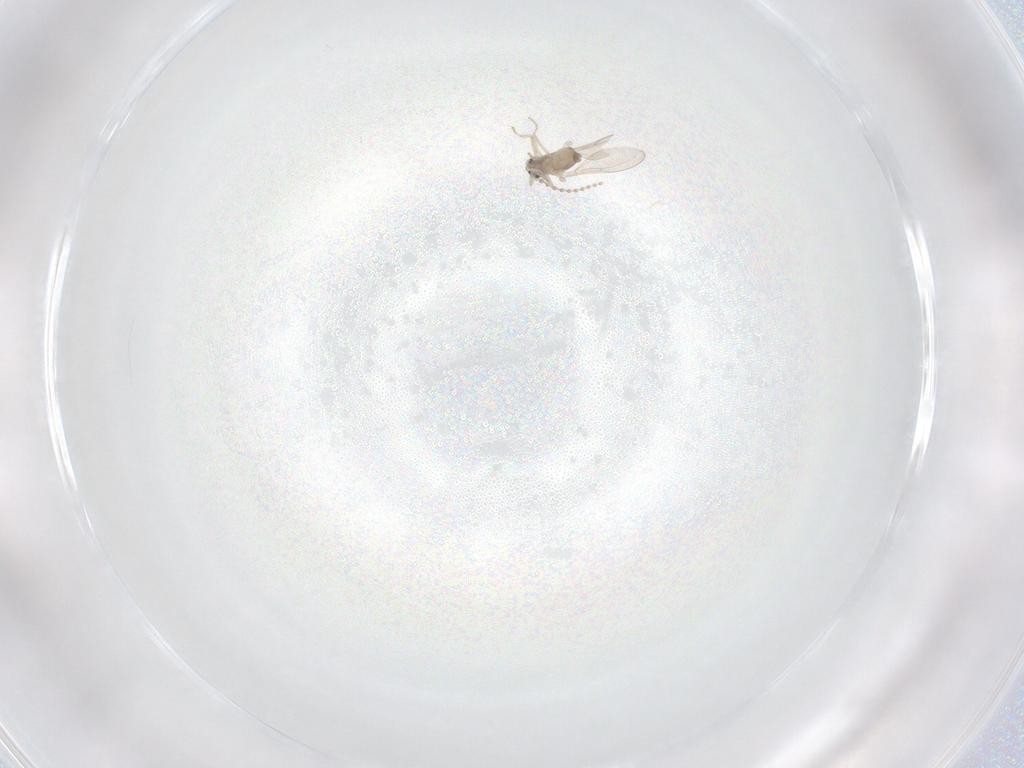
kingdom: Animalia
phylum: Arthropoda
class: Insecta
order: Diptera
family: Cecidomyiidae
